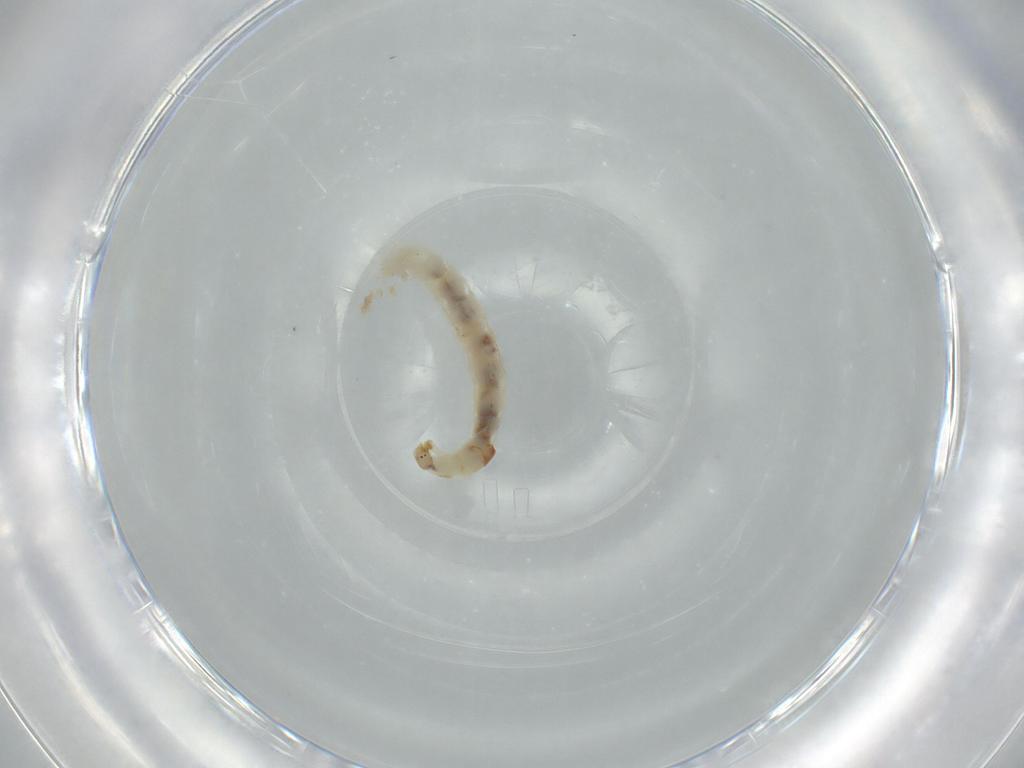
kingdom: Animalia
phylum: Arthropoda
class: Insecta
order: Diptera
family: Chironomidae
